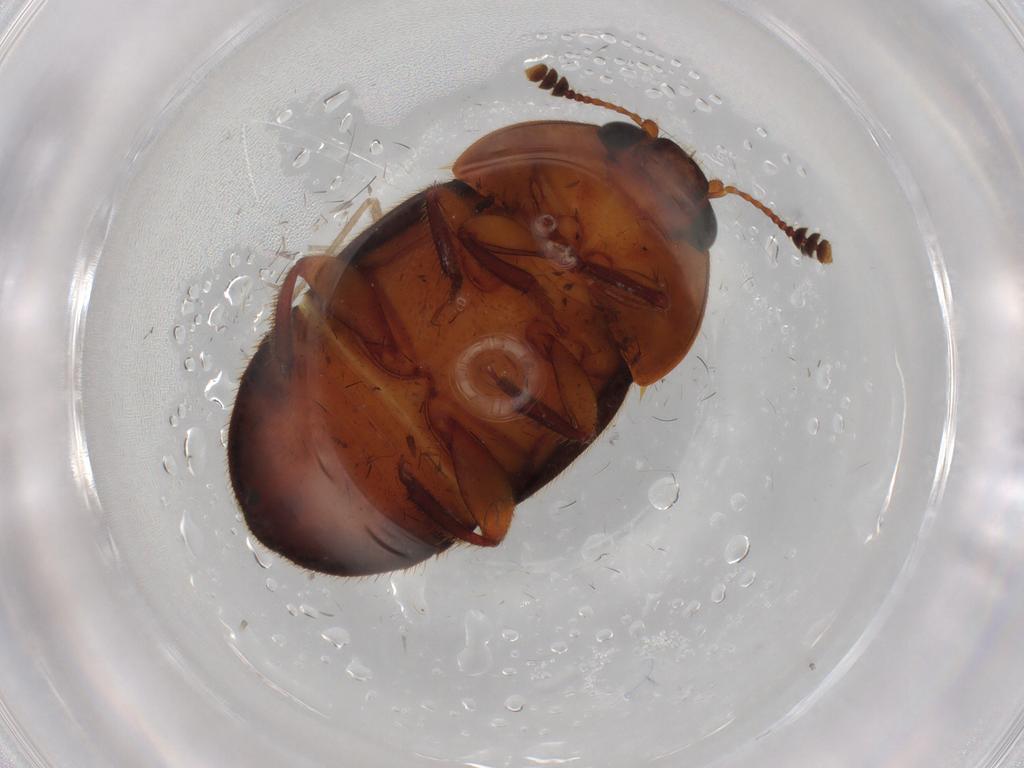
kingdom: Animalia
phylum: Arthropoda
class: Insecta
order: Coleoptera
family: Nitidulidae
